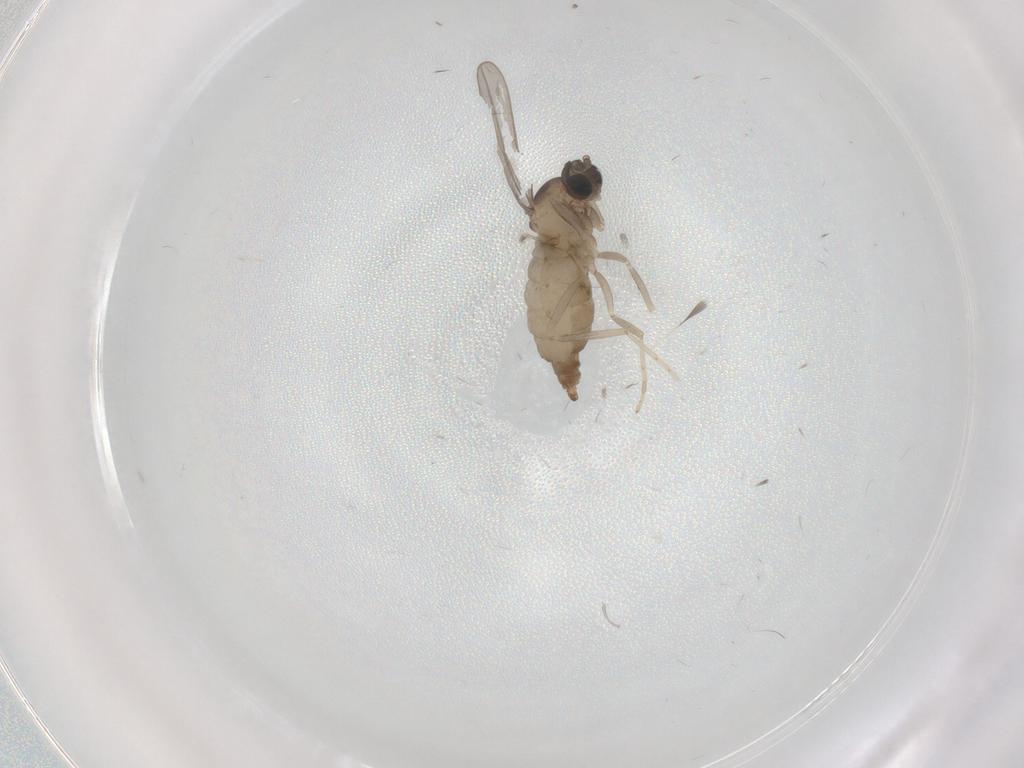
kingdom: Animalia
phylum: Arthropoda
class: Insecta
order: Diptera
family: Cecidomyiidae
